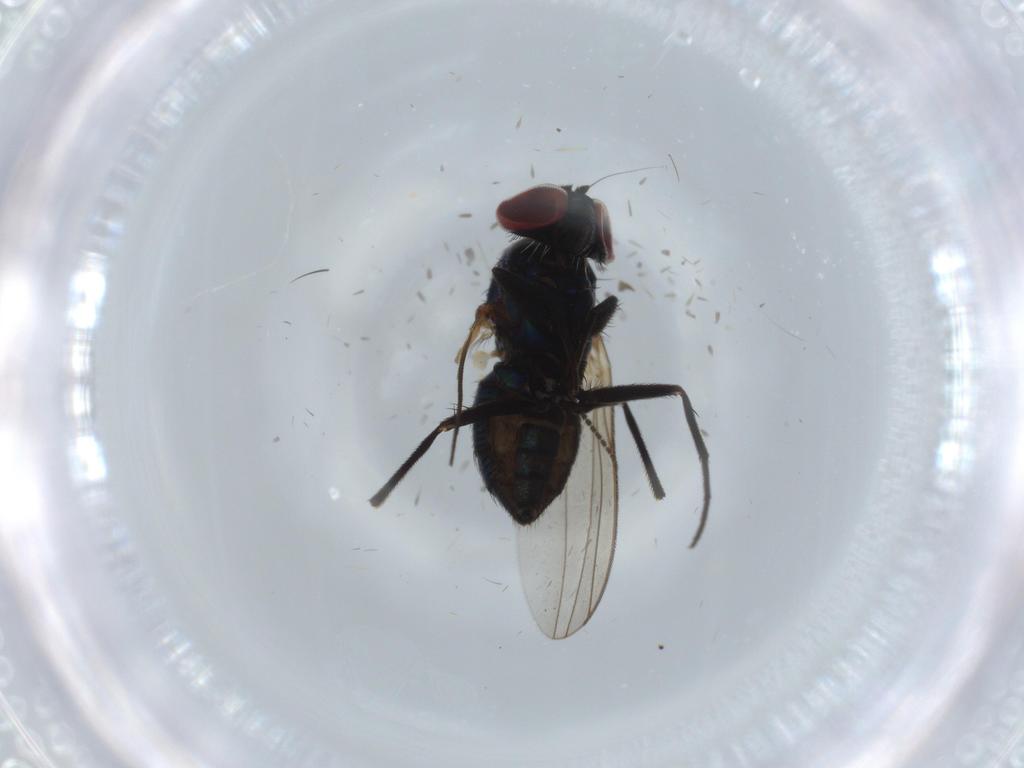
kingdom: Animalia
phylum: Arthropoda
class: Insecta
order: Diptera
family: Dolichopodidae
